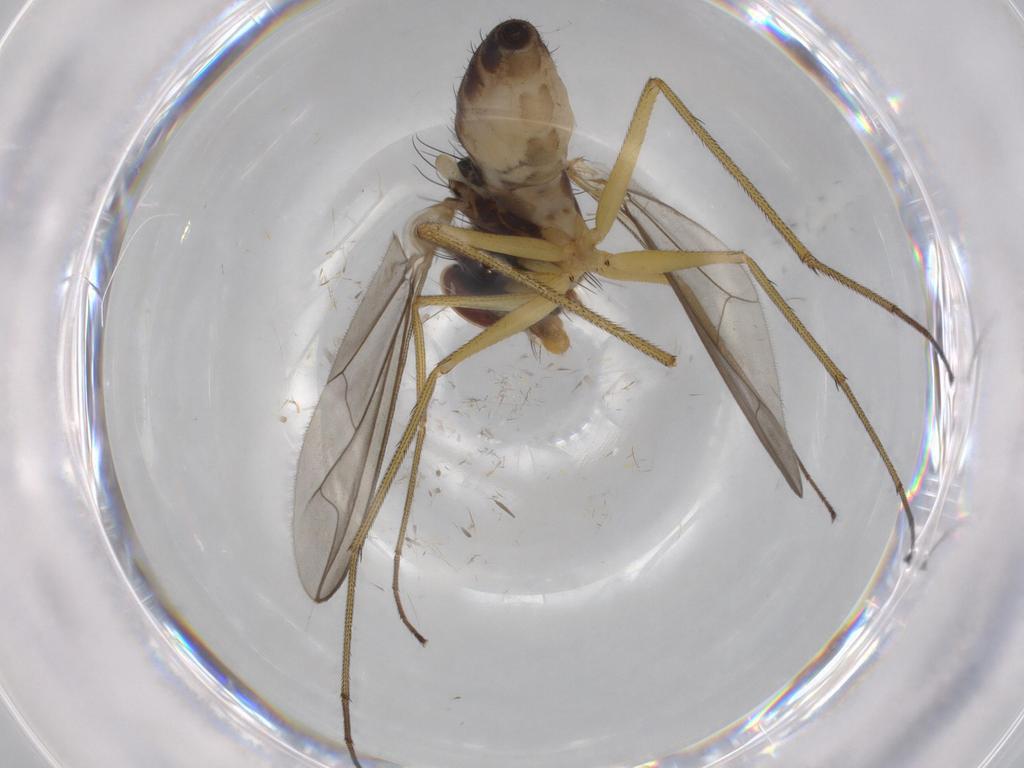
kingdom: Animalia
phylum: Arthropoda
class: Insecta
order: Diptera
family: Dolichopodidae
